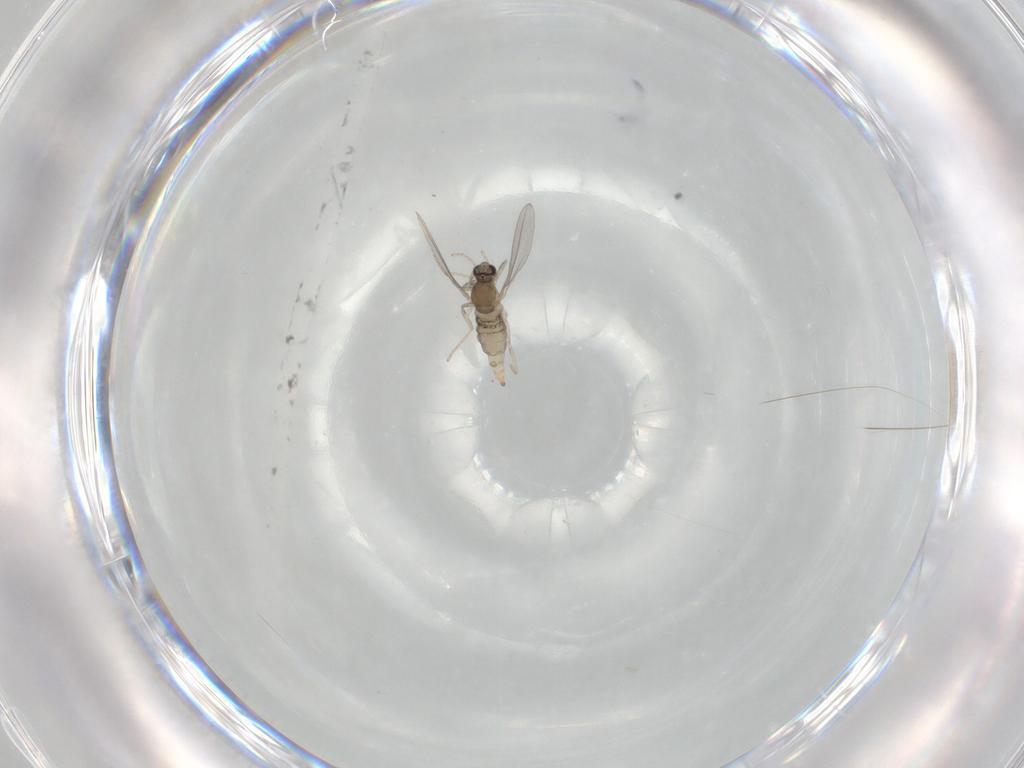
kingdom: Animalia
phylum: Arthropoda
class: Insecta
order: Diptera
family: Cecidomyiidae
